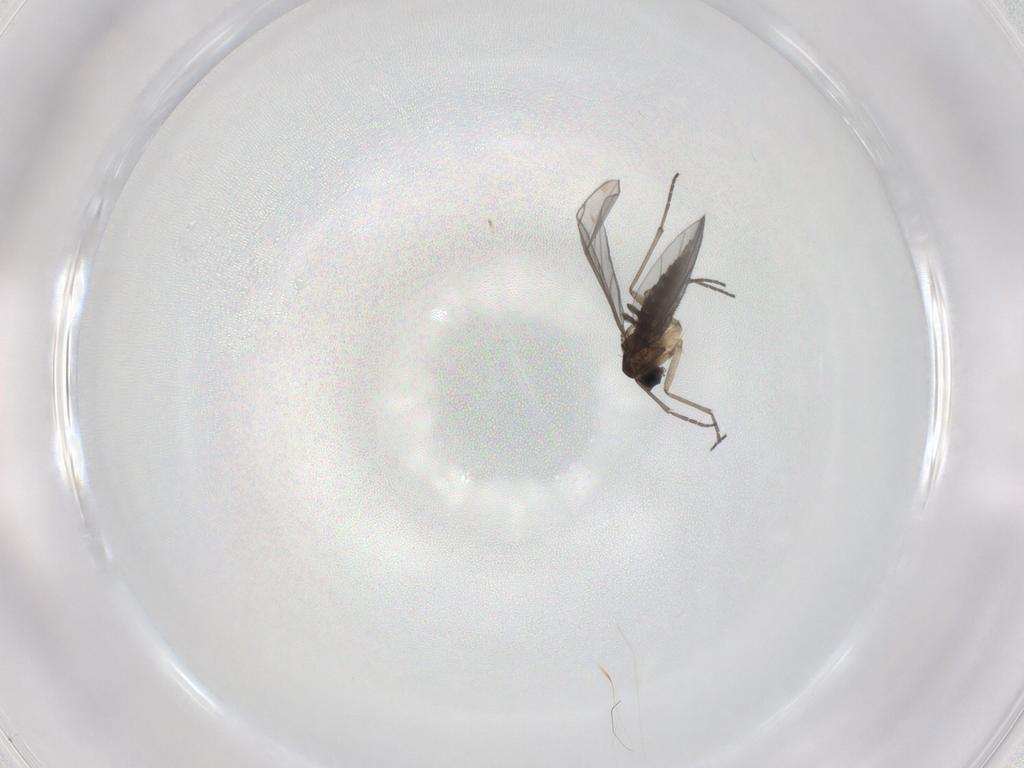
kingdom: Animalia
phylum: Arthropoda
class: Insecta
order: Diptera
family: Sciaridae
